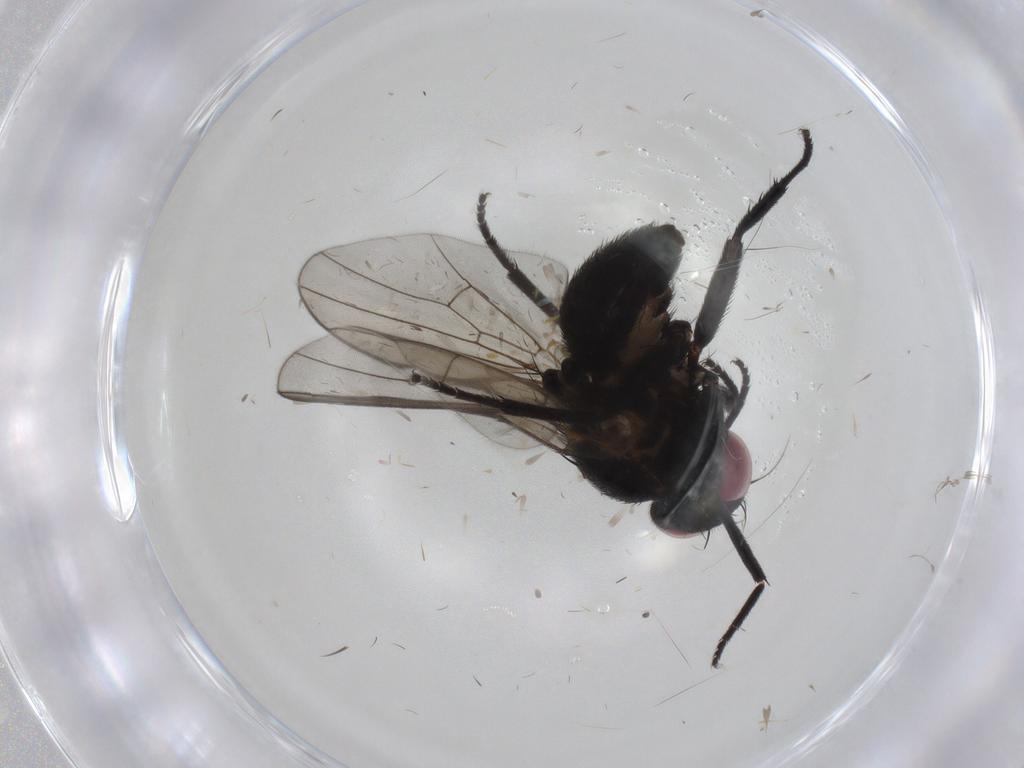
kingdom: Animalia
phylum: Arthropoda
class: Insecta
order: Diptera
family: Agromyzidae
